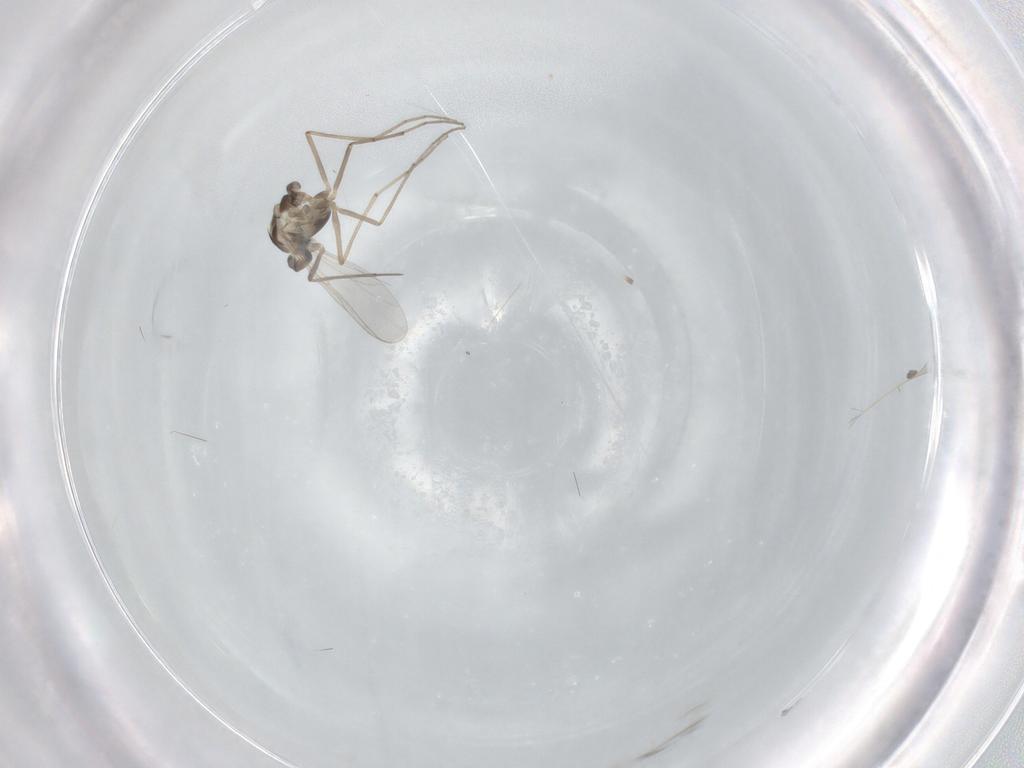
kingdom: Animalia
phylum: Arthropoda
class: Insecta
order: Diptera
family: Chironomidae
